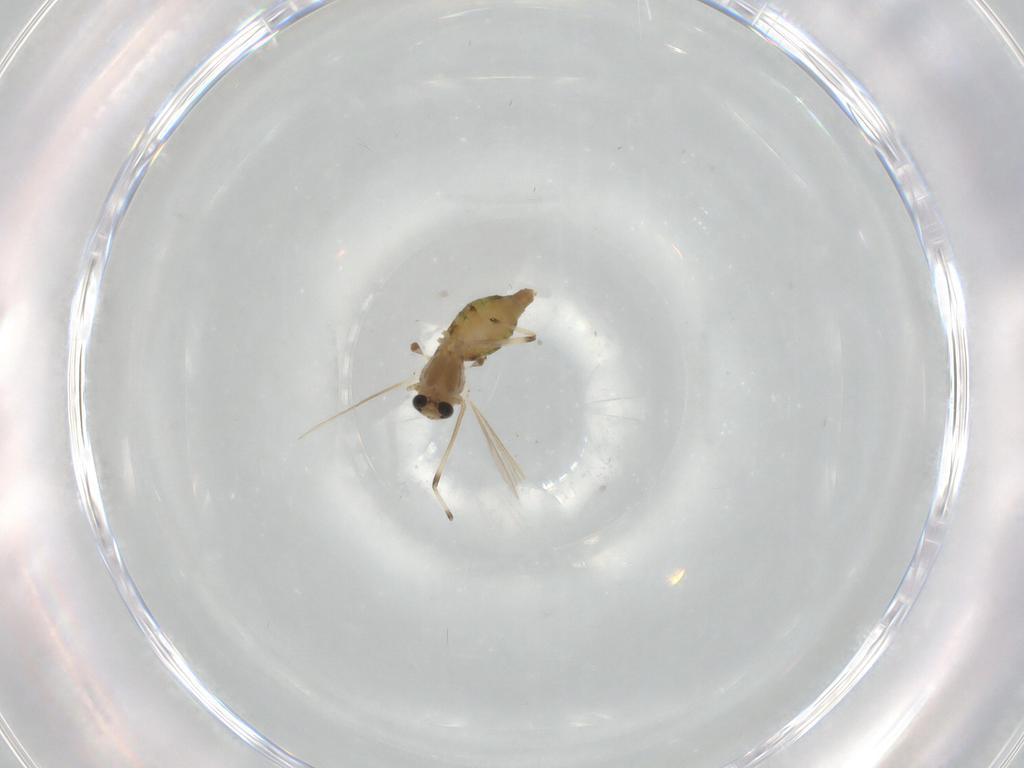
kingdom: Animalia
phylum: Arthropoda
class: Insecta
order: Diptera
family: Chironomidae
